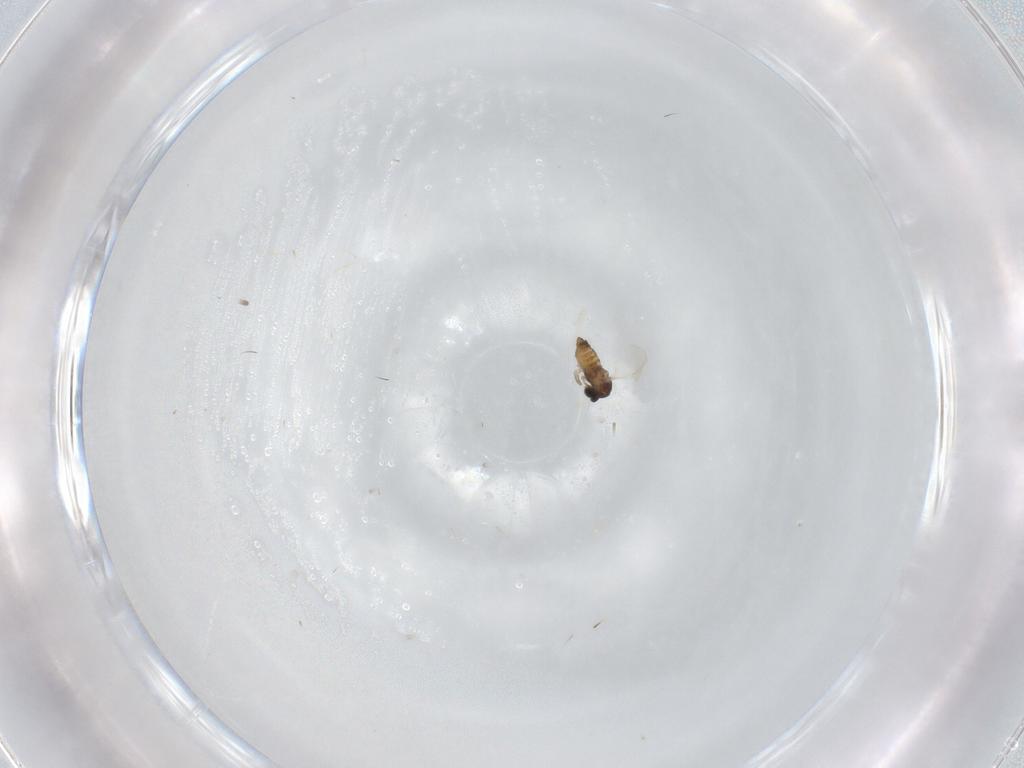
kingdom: Animalia
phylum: Arthropoda
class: Insecta
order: Diptera
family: Cecidomyiidae
